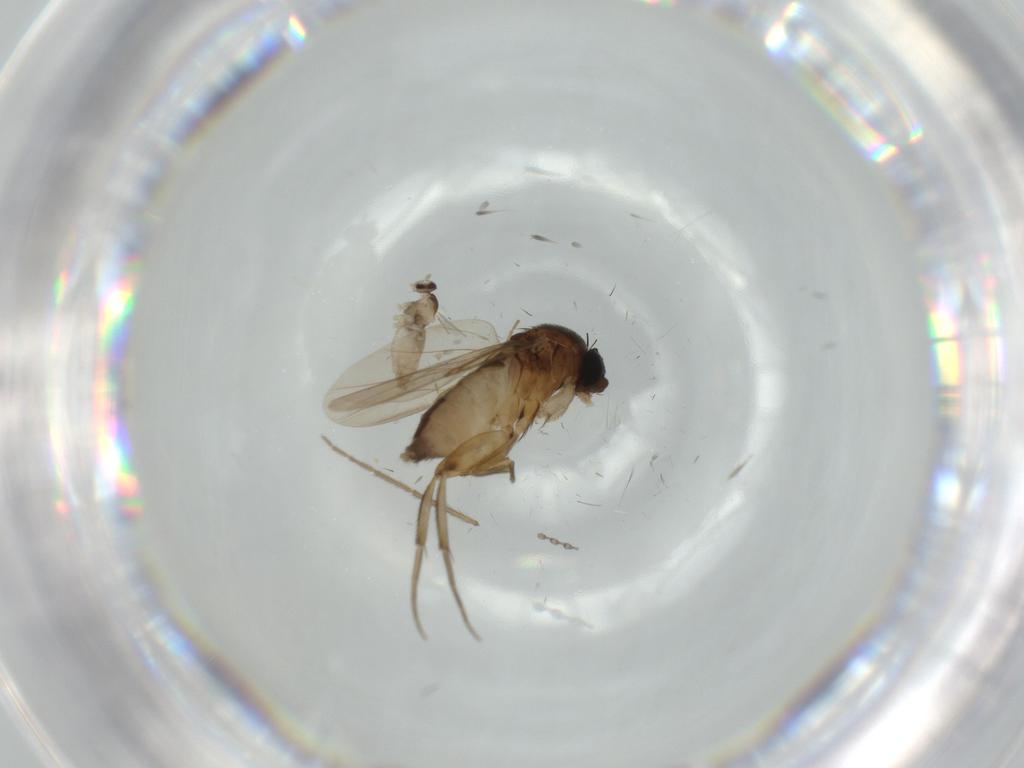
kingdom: Animalia
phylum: Arthropoda
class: Insecta
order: Diptera
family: Phoridae
